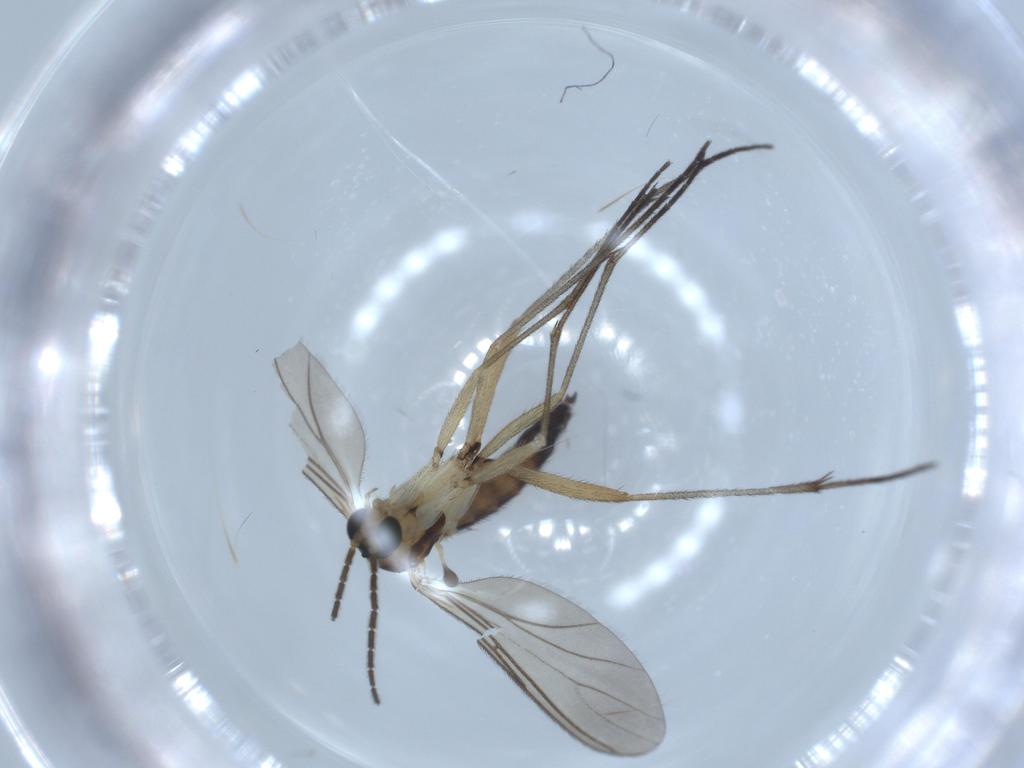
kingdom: Animalia
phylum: Arthropoda
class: Insecta
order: Diptera
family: Sciaridae
